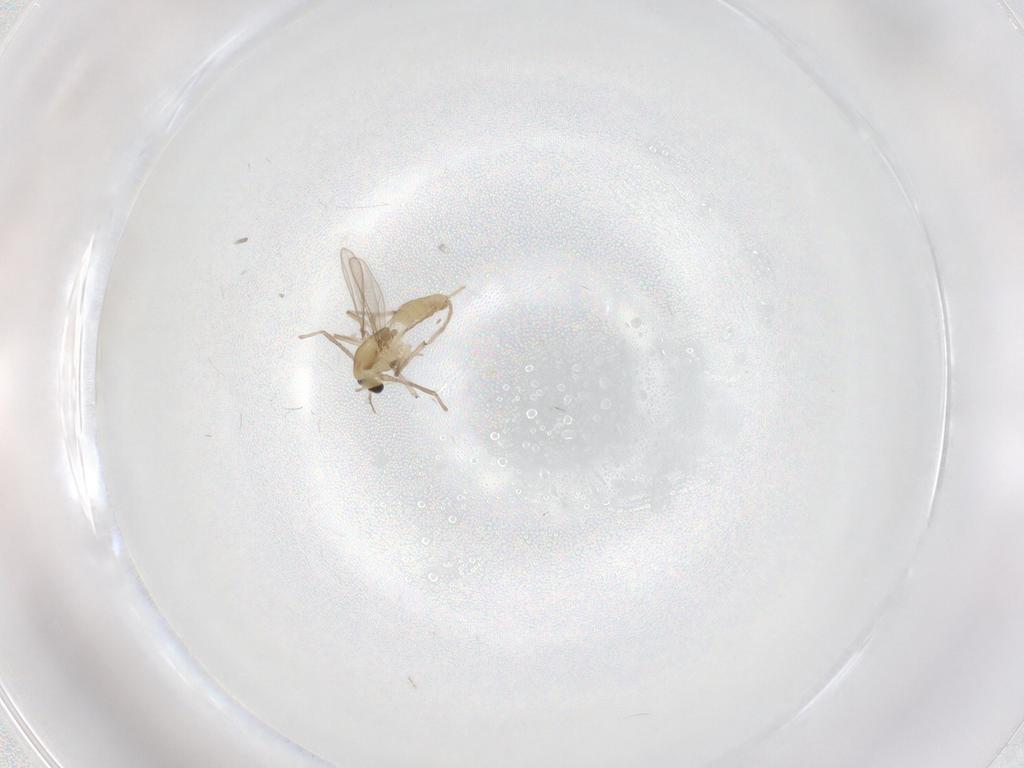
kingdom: Animalia
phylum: Arthropoda
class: Insecta
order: Diptera
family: Chironomidae
